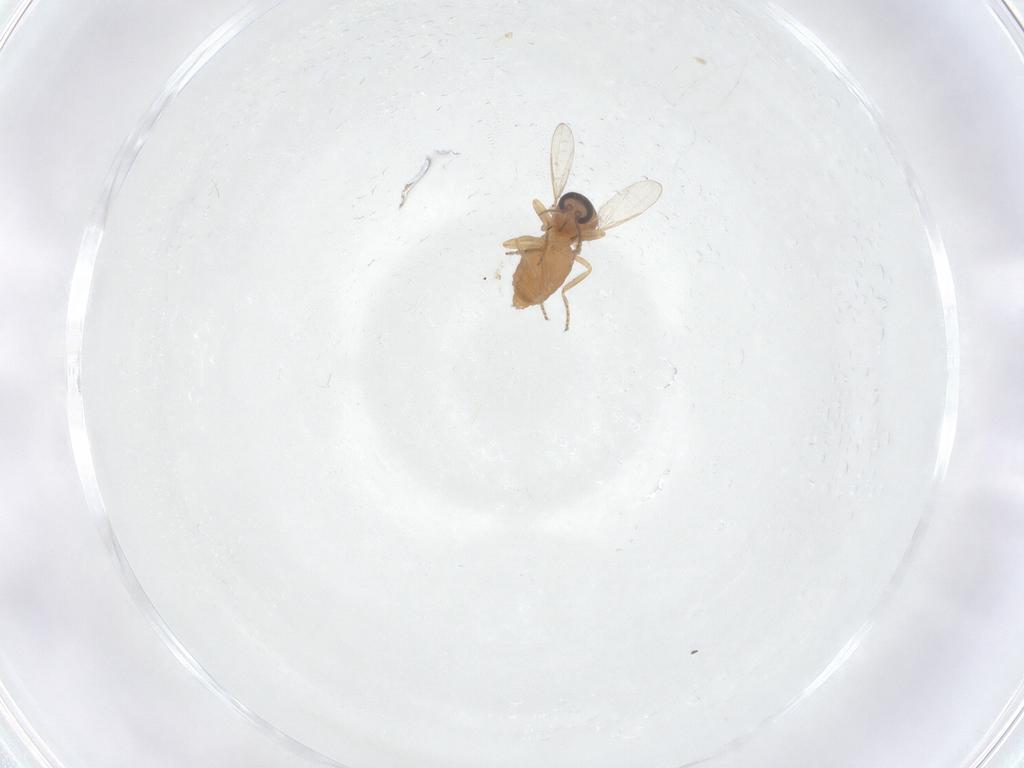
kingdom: Animalia
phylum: Arthropoda
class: Insecta
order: Diptera
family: Ceratopogonidae
